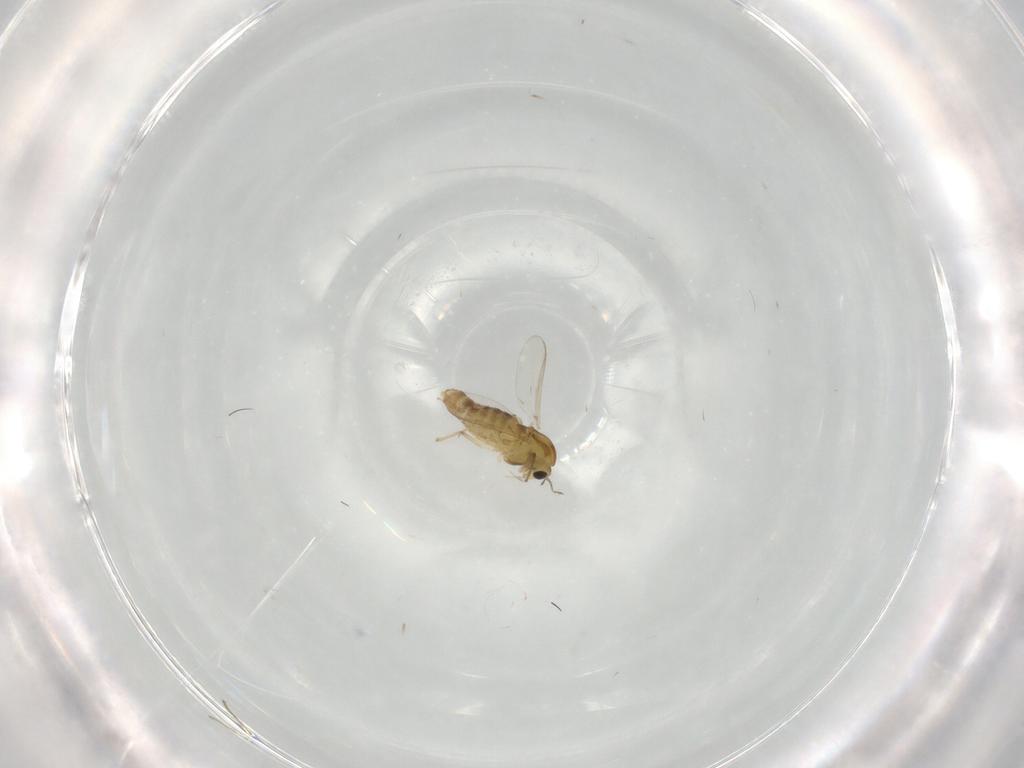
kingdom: Animalia
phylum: Arthropoda
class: Insecta
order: Diptera
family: Chironomidae
